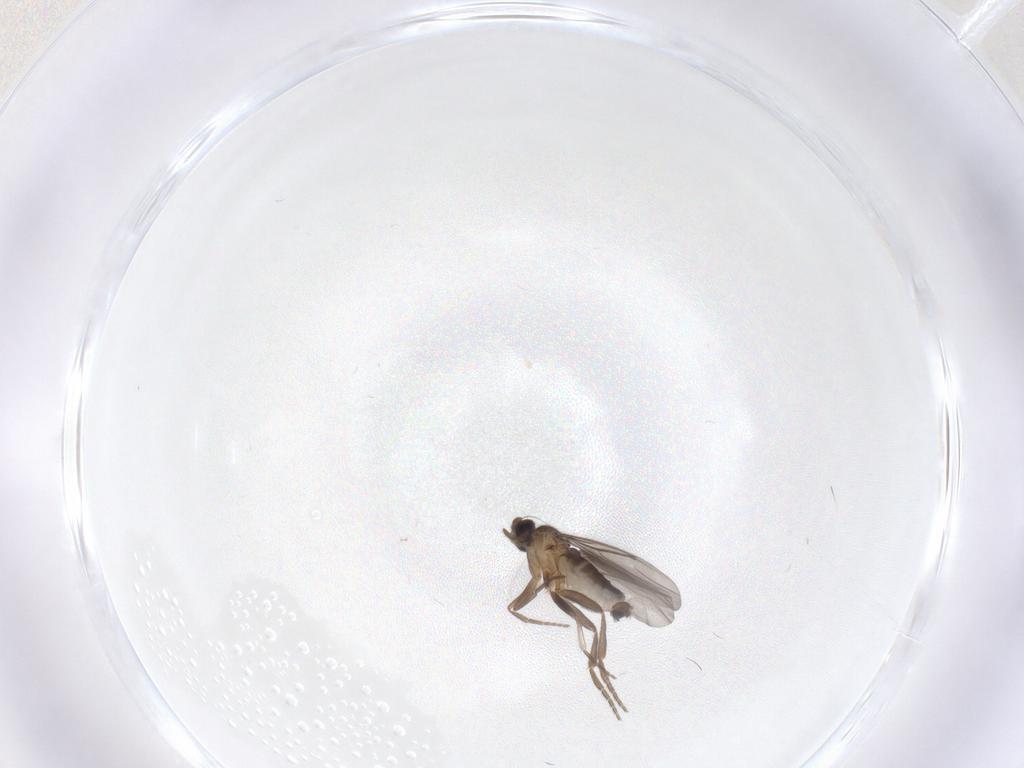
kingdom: Animalia
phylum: Arthropoda
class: Insecta
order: Diptera
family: Phoridae
